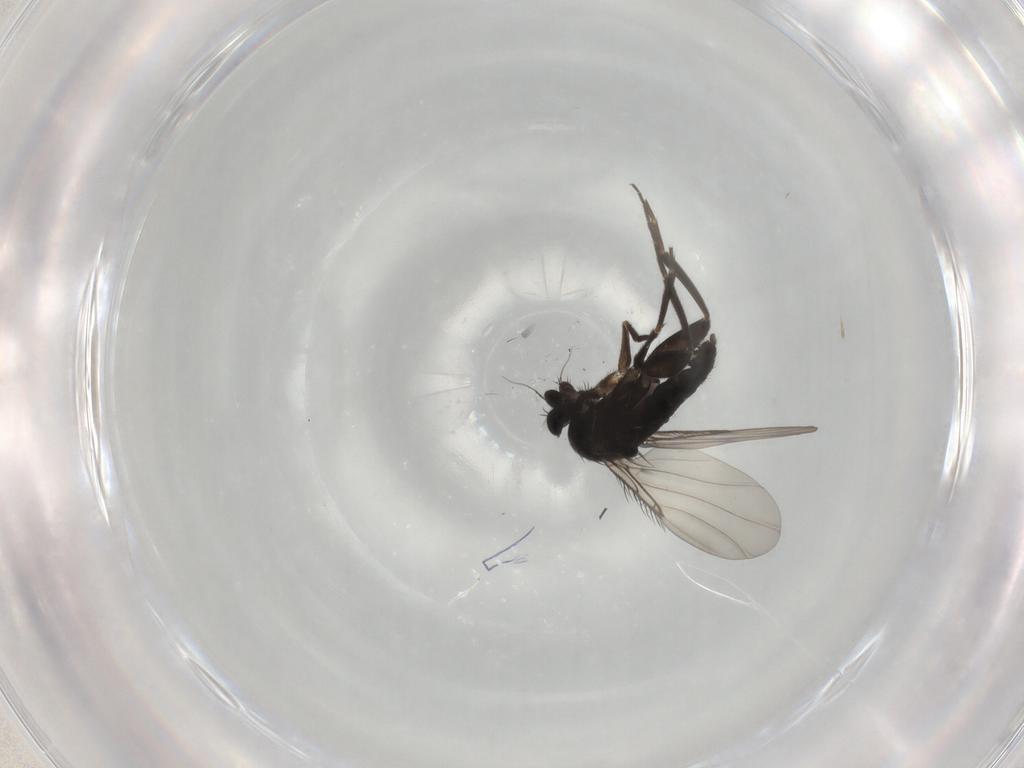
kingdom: Animalia
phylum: Arthropoda
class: Insecta
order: Diptera
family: Phoridae
